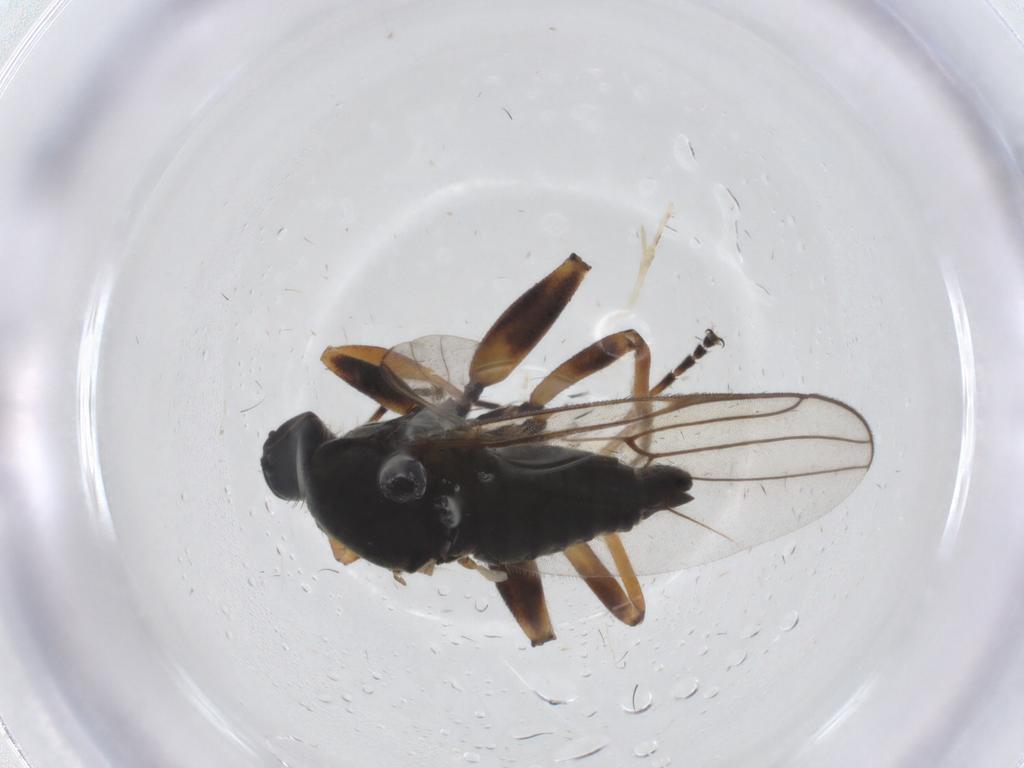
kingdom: Animalia
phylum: Arthropoda
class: Insecta
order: Diptera
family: Hybotidae
